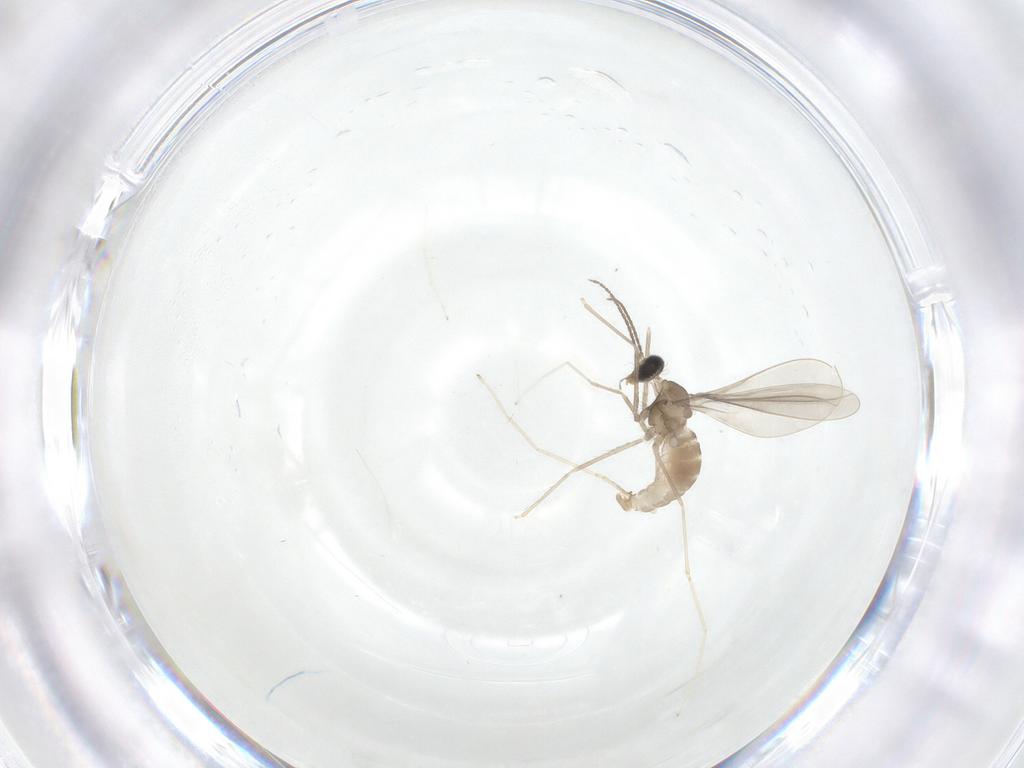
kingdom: Animalia
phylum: Arthropoda
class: Insecta
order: Diptera
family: Cecidomyiidae
